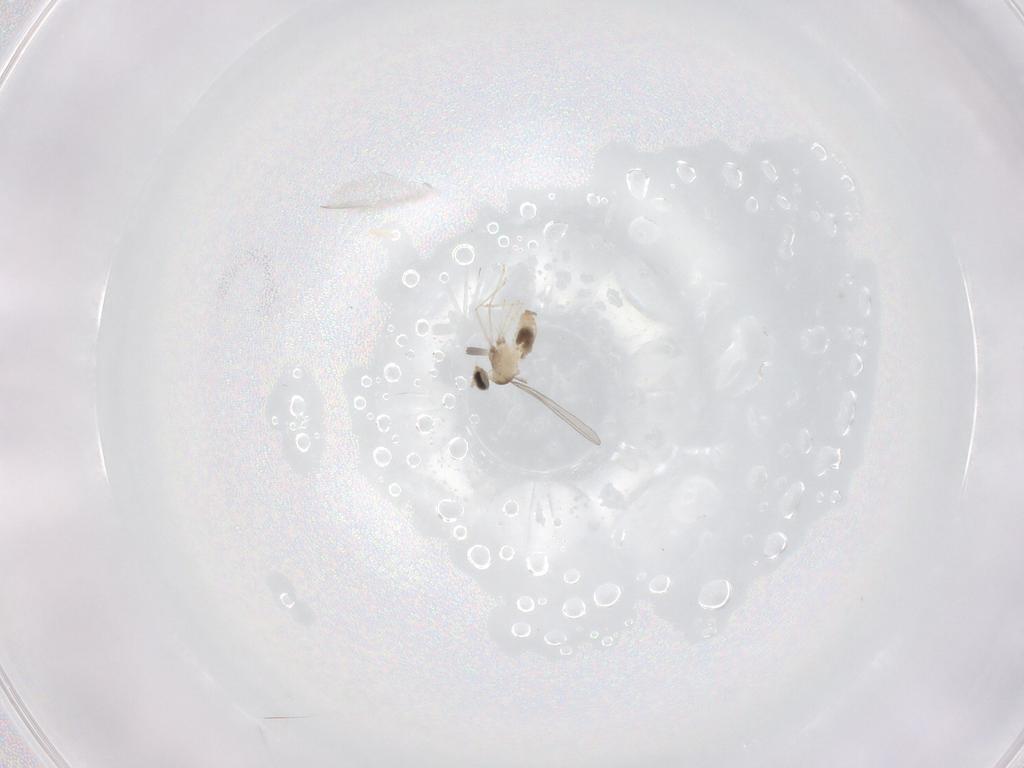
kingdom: Animalia
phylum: Arthropoda
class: Insecta
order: Diptera
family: Cecidomyiidae
